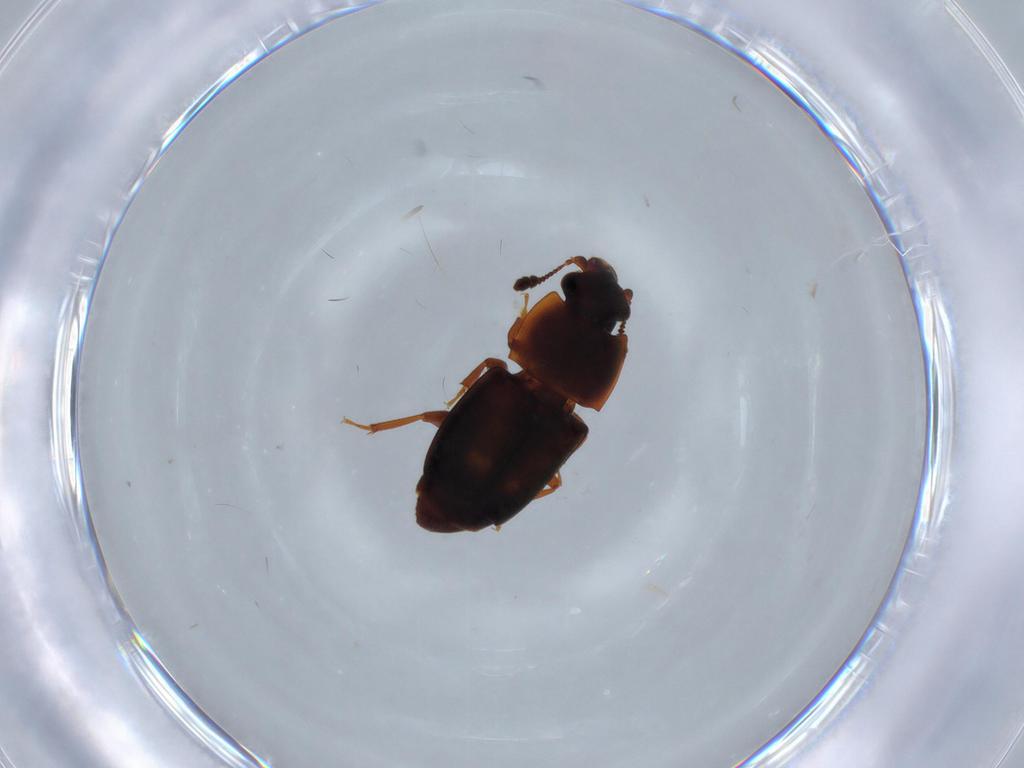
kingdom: Animalia
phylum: Arthropoda
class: Insecta
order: Coleoptera
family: Nitidulidae
